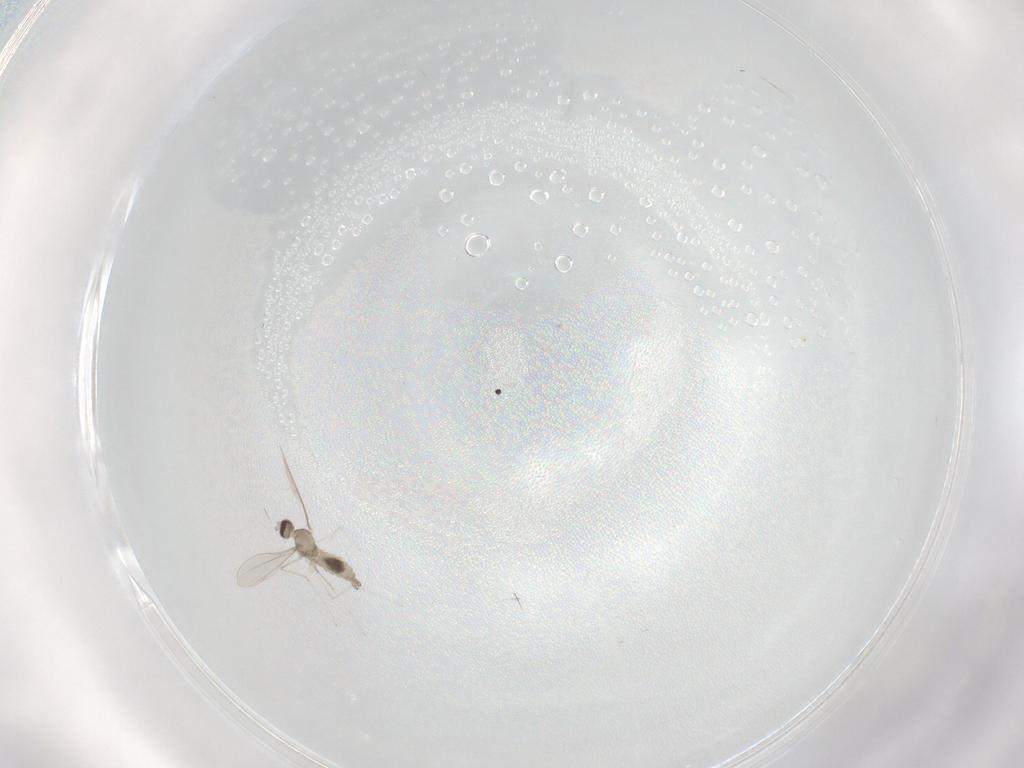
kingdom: Animalia
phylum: Arthropoda
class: Insecta
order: Diptera
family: Cecidomyiidae
